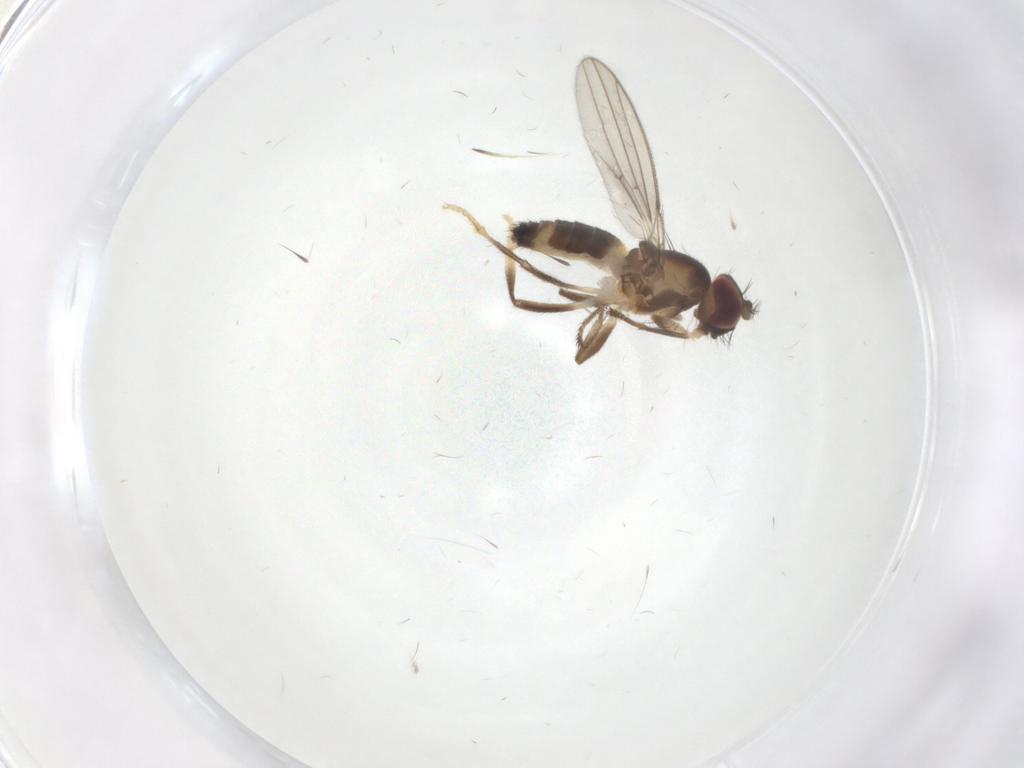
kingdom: Animalia
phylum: Arthropoda
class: Insecta
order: Diptera
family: Periscelididae
